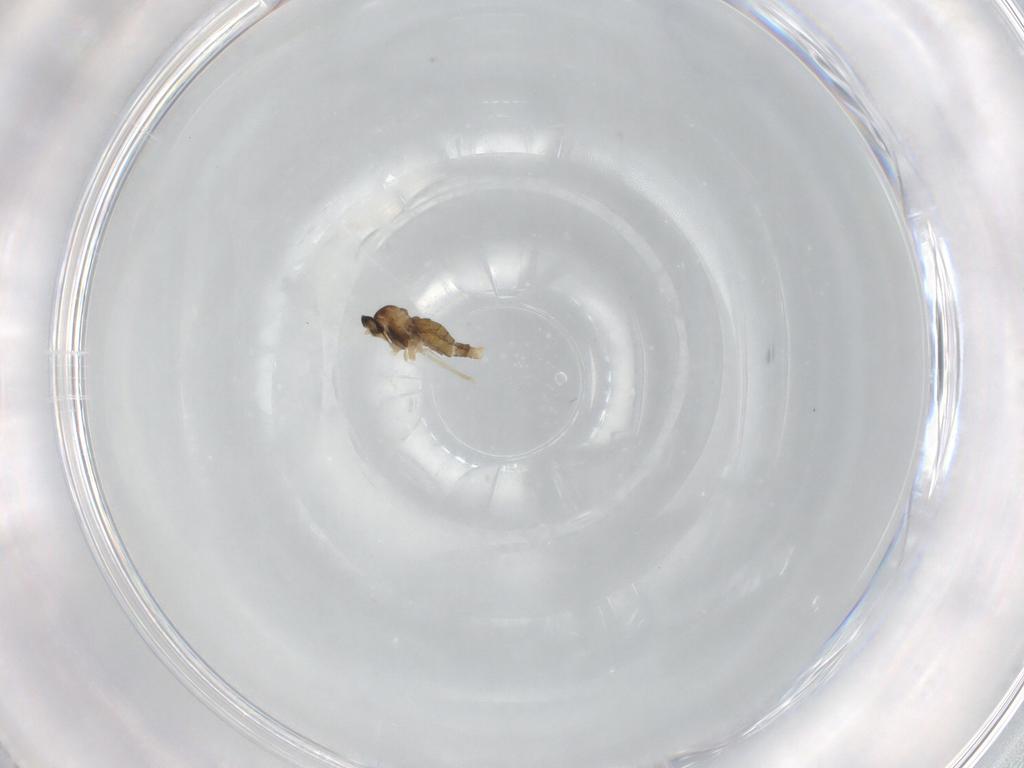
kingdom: Animalia
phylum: Arthropoda
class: Insecta
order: Diptera
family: Cecidomyiidae
